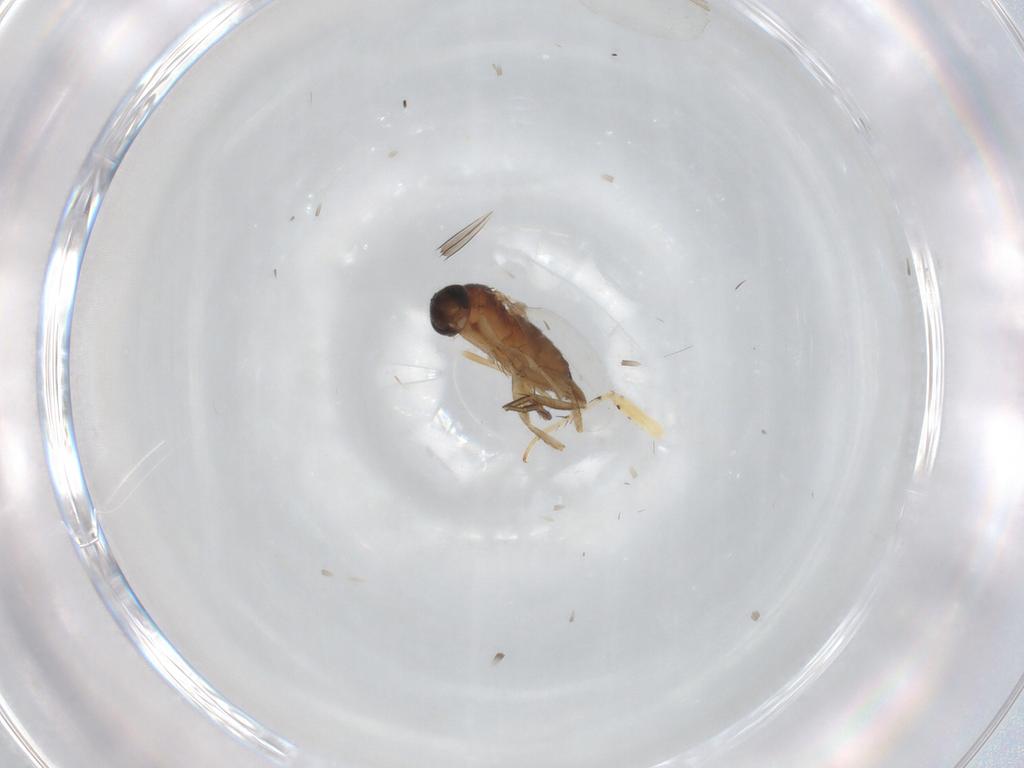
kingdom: Animalia
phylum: Arthropoda
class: Insecta
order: Diptera
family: Phoridae
